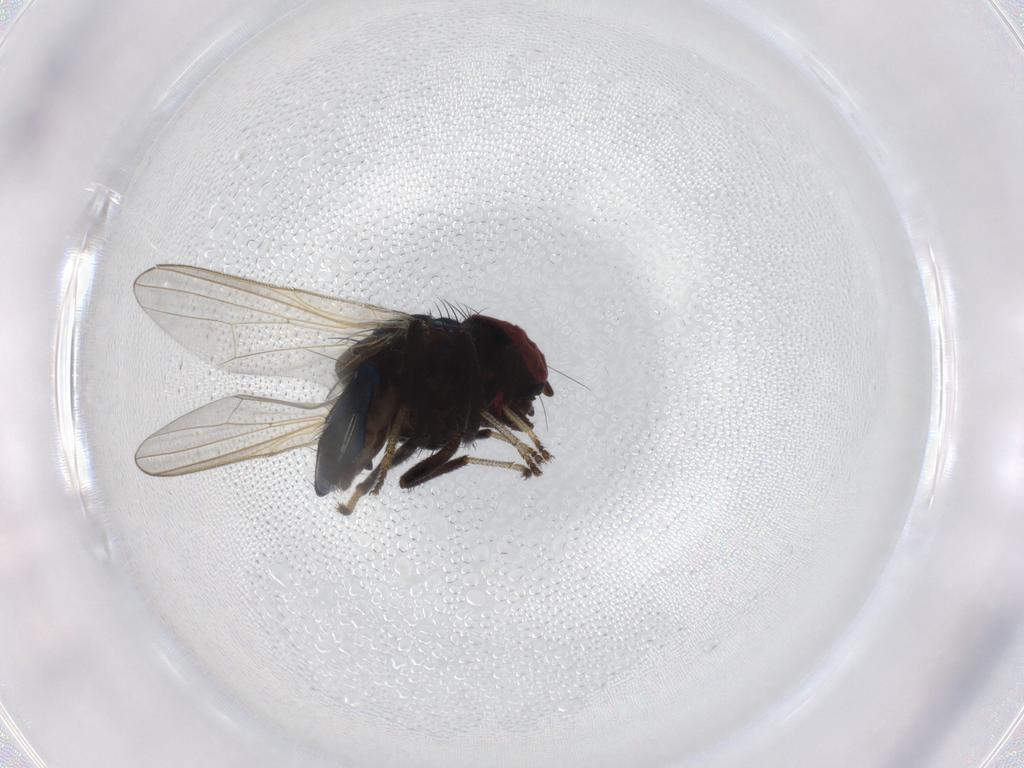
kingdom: Animalia
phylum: Arthropoda
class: Insecta
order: Diptera
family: Lonchaeidae
